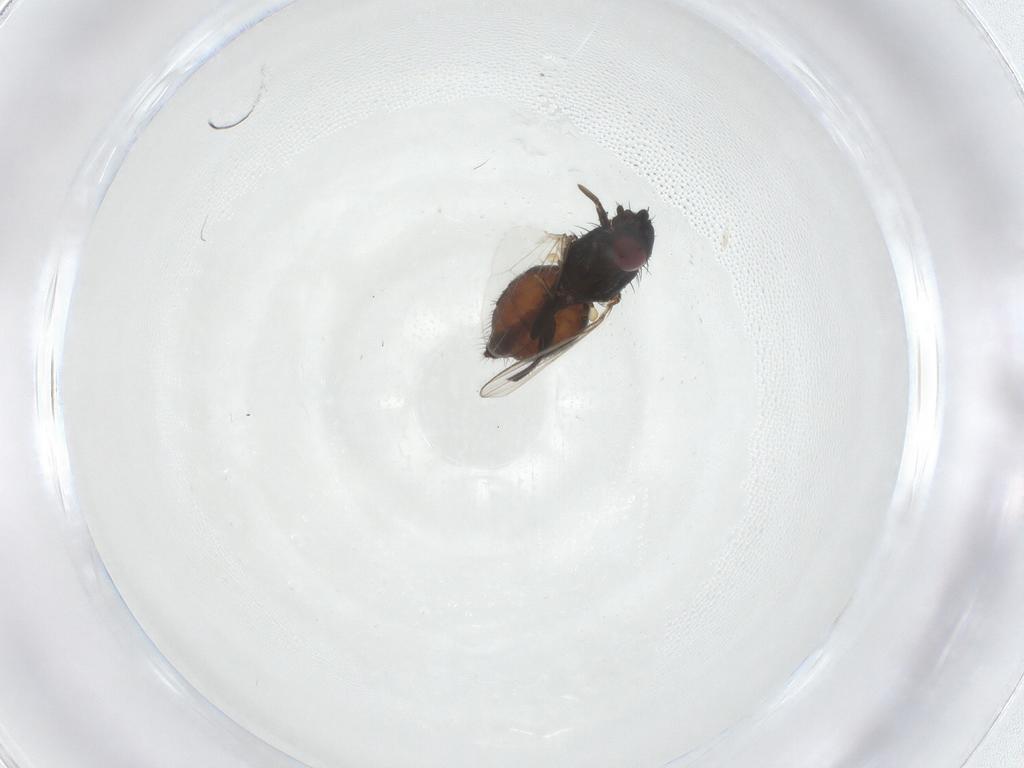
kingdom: Animalia
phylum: Arthropoda
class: Insecta
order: Diptera
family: Milichiidae
